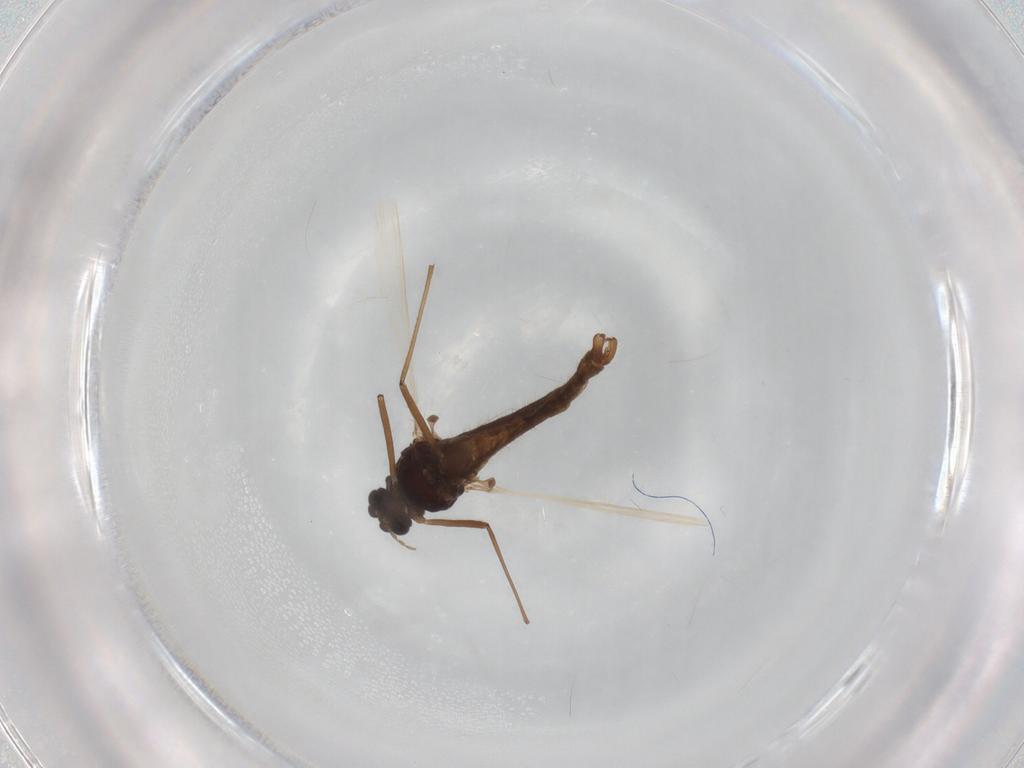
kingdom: Animalia
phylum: Arthropoda
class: Insecta
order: Diptera
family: Chironomidae
